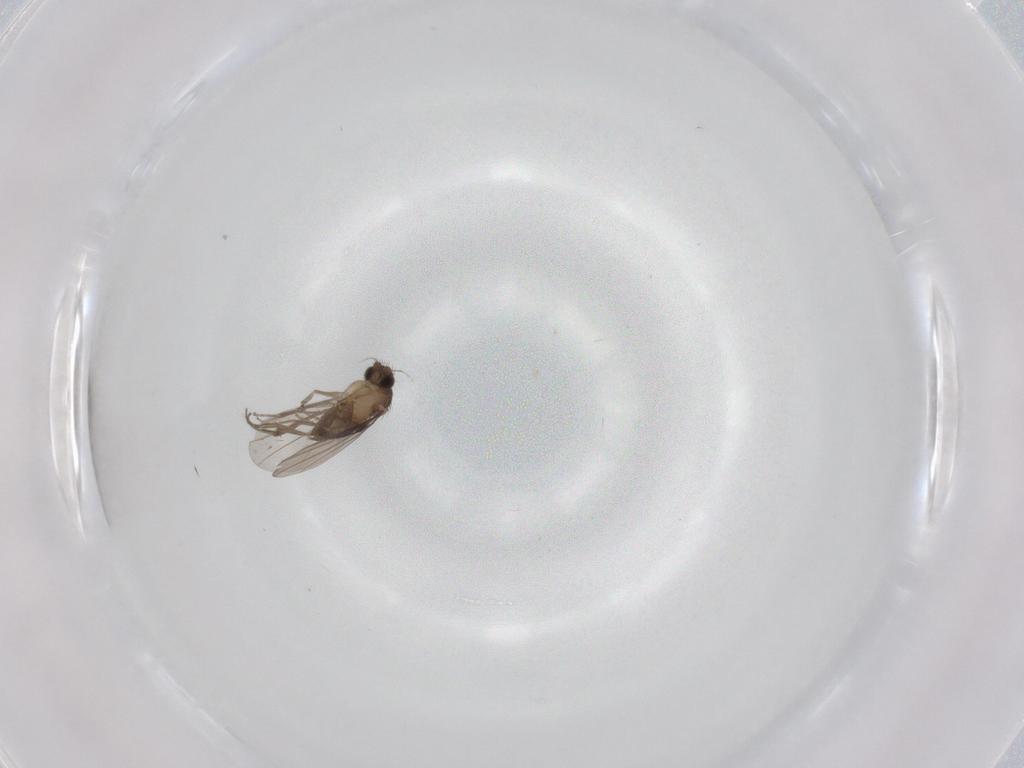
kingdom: Animalia
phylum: Arthropoda
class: Insecta
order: Diptera
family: Phoridae
